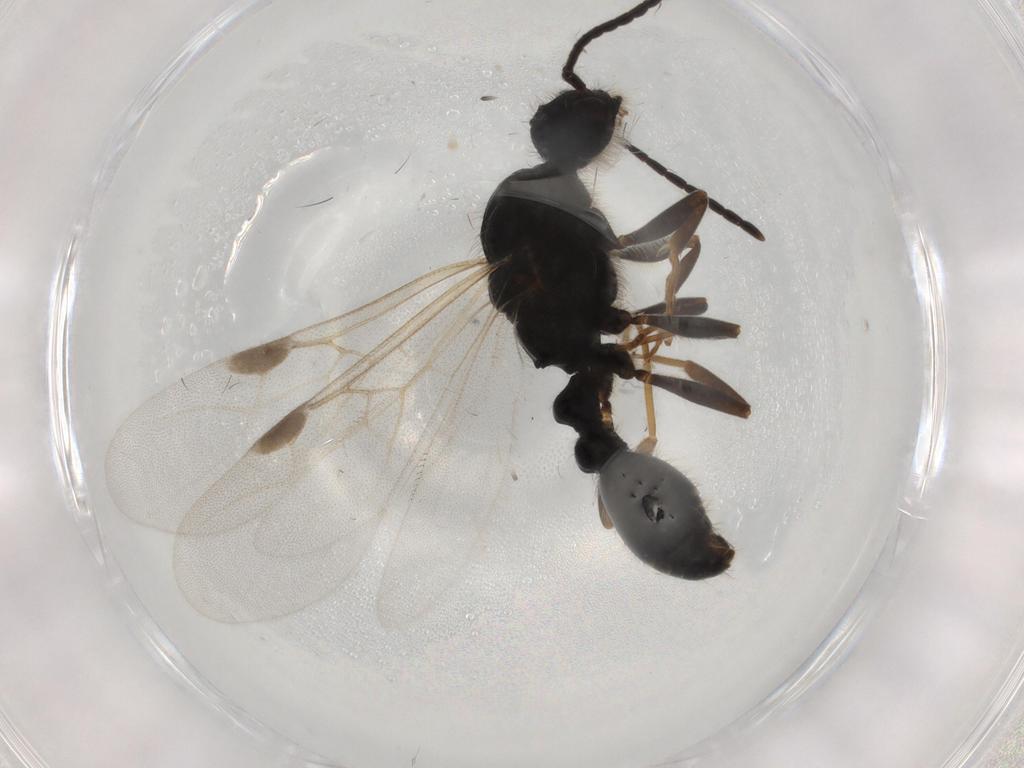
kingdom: Animalia
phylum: Arthropoda
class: Insecta
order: Hymenoptera
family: Formicidae
